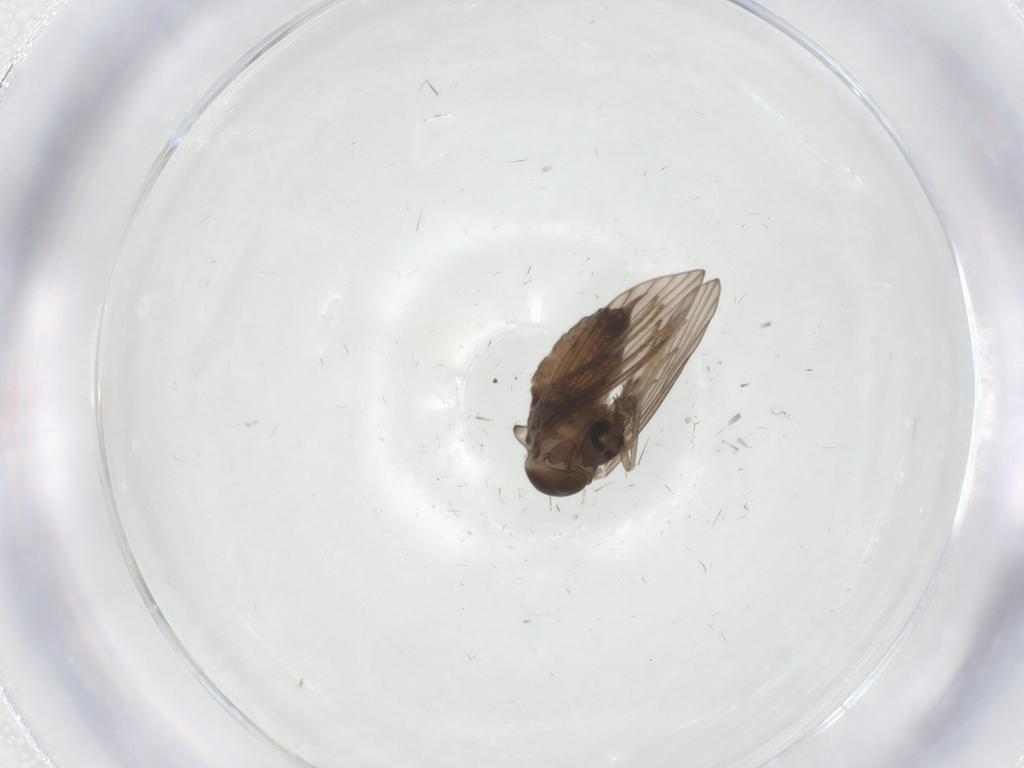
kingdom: Animalia
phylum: Arthropoda
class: Insecta
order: Diptera
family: Psychodidae
